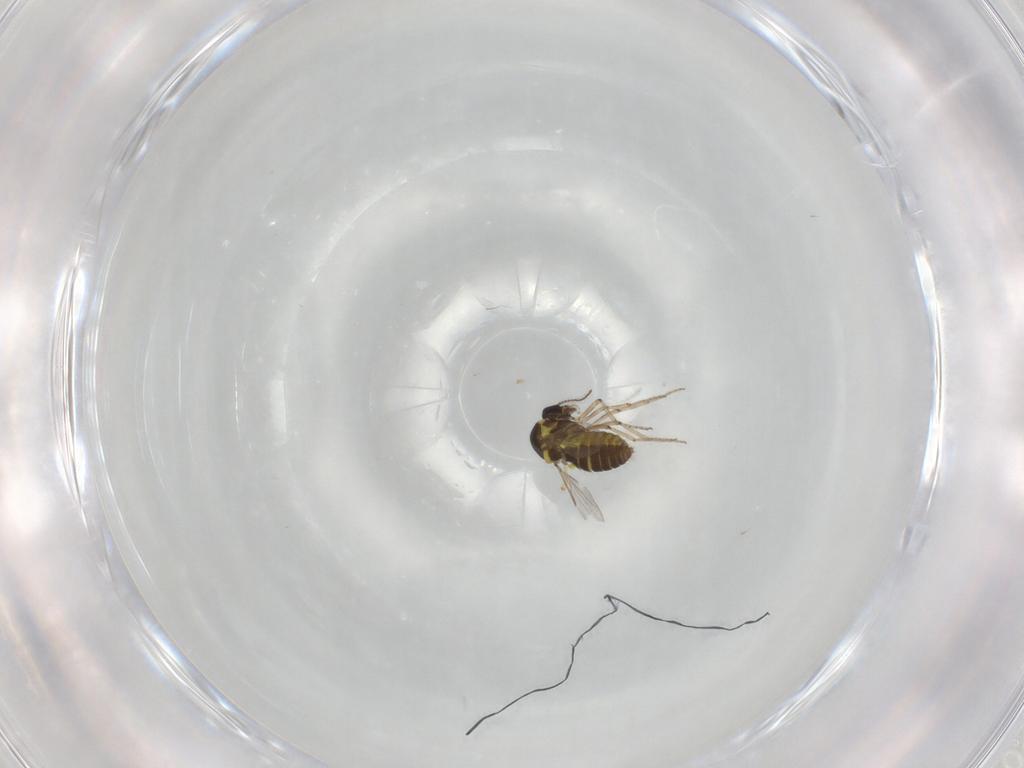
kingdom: Animalia
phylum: Arthropoda
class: Insecta
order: Diptera
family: Ceratopogonidae
